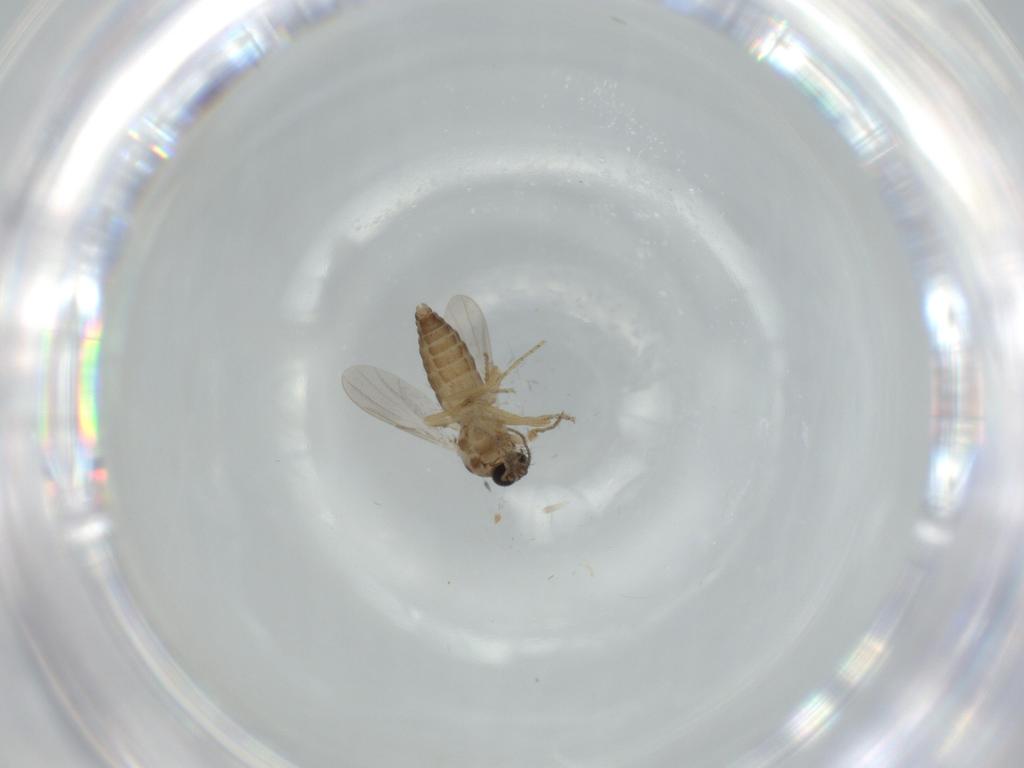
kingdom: Animalia
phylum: Arthropoda
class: Insecta
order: Diptera
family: Ceratopogonidae
